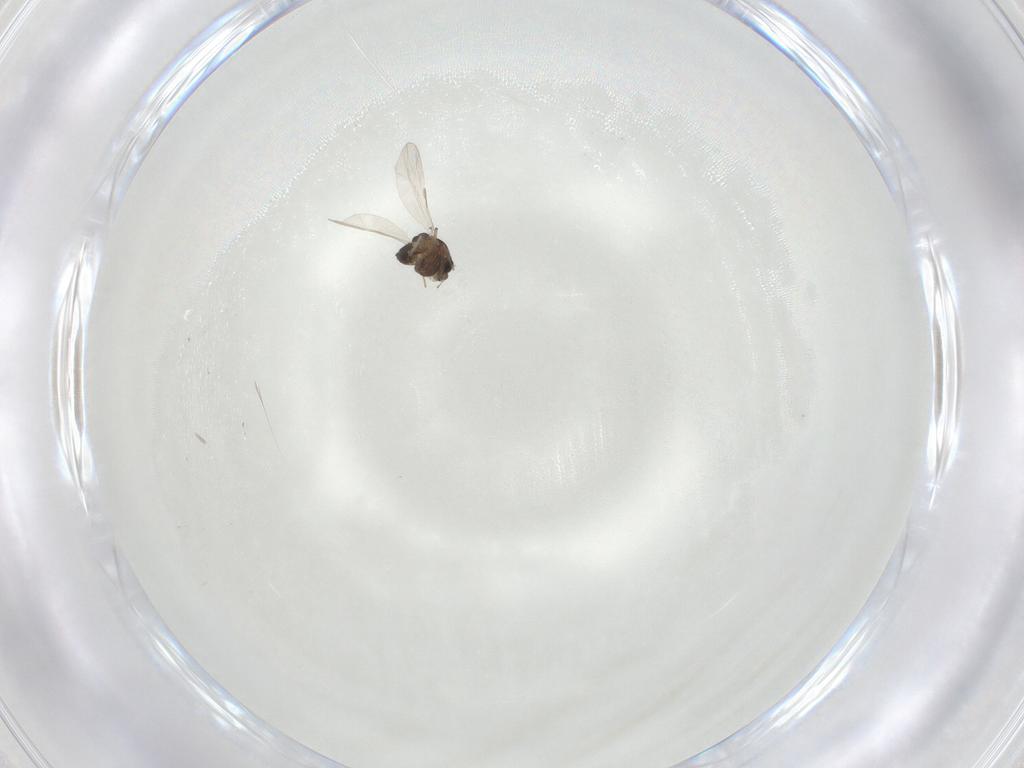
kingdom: Animalia
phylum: Arthropoda
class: Insecta
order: Diptera
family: Chironomidae
